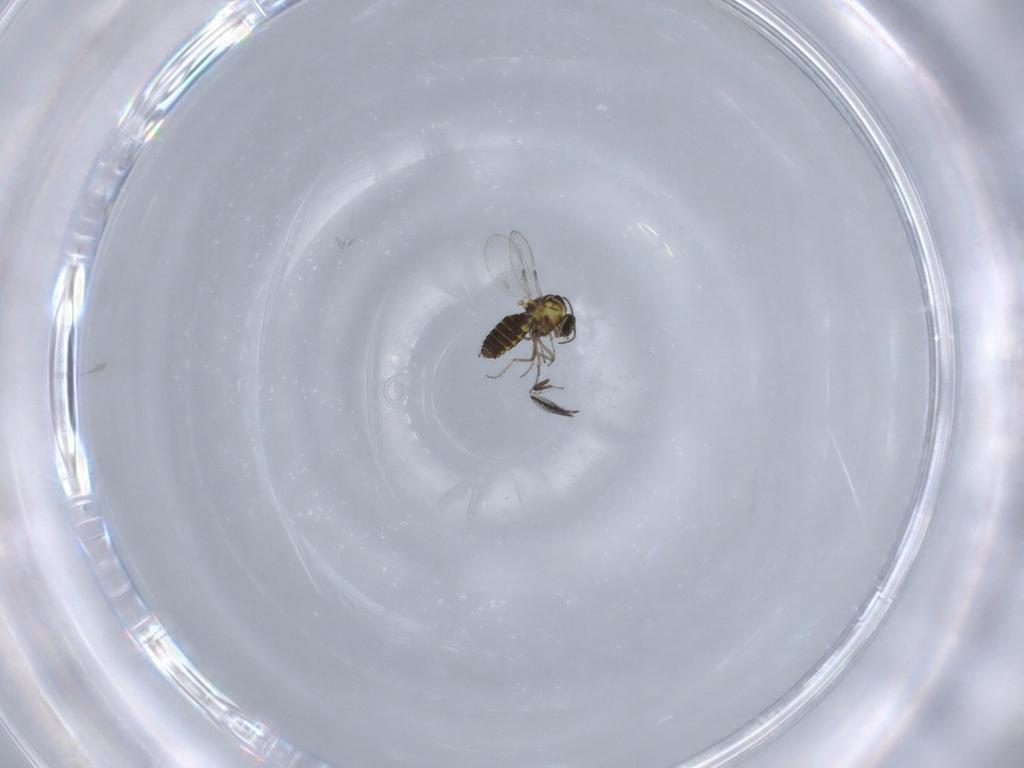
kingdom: Animalia
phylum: Arthropoda
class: Insecta
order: Diptera
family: Ceratopogonidae
